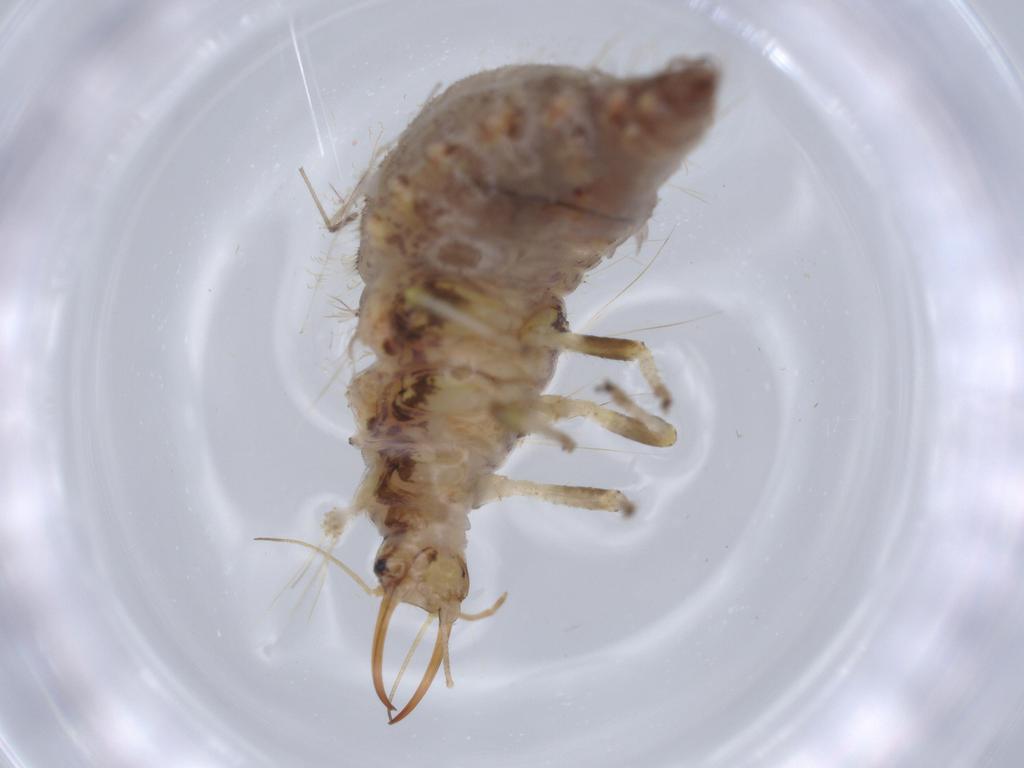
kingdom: Animalia
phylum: Arthropoda
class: Insecta
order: Neuroptera
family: Coniopterygidae
